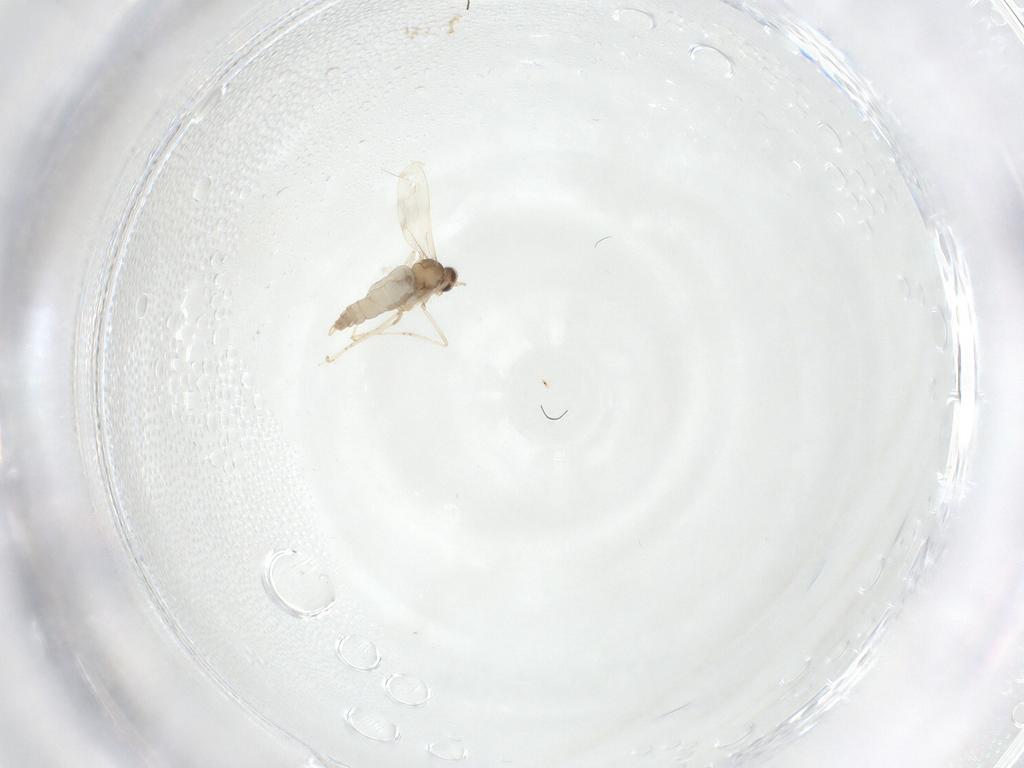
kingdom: Animalia
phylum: Arthropoda
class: Insecta
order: Diptera
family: Cecidomyiidae
